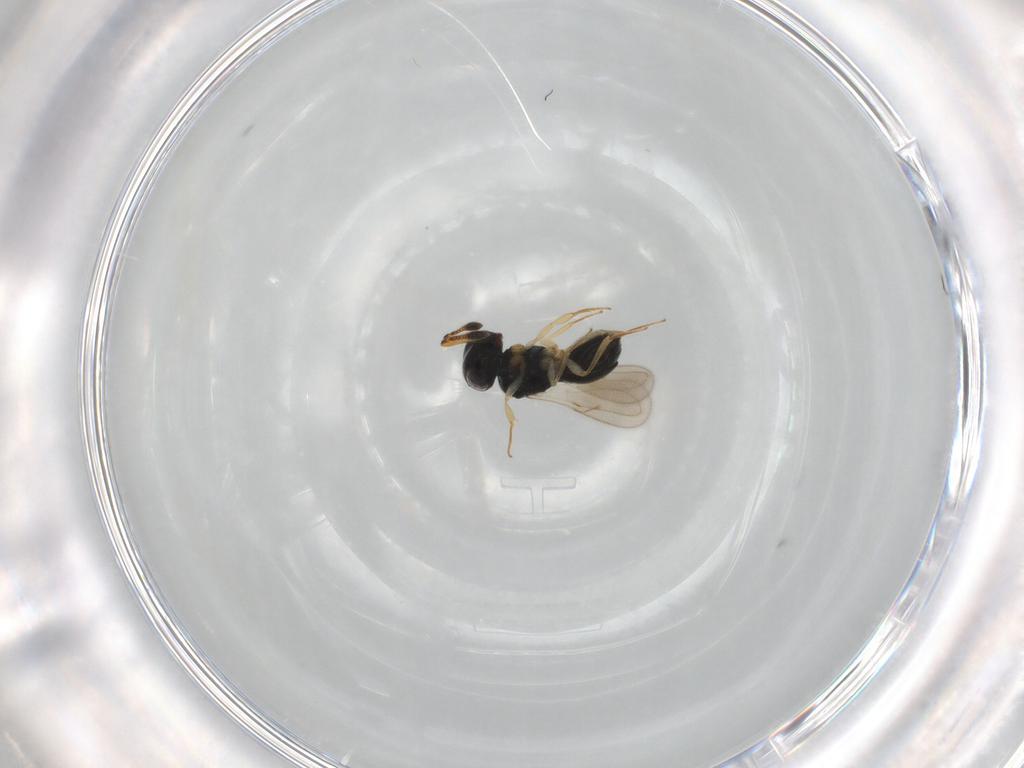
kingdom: Animalia
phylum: Arthropoda
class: Insecta
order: Hymenoptera
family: Scelionidae
